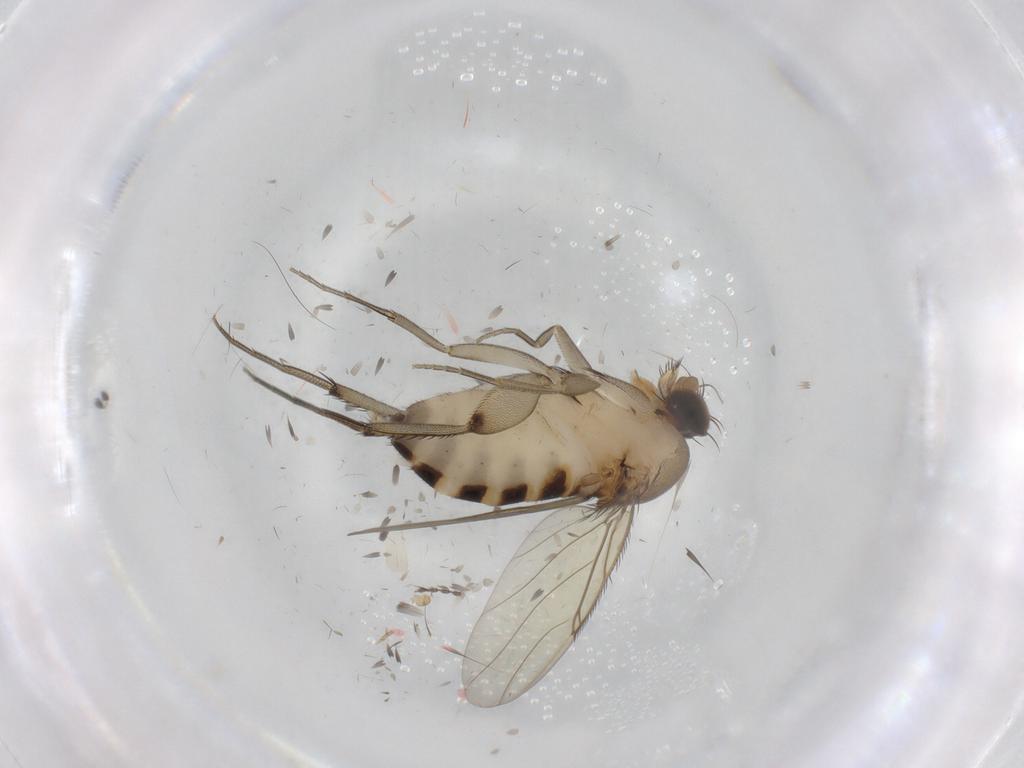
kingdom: Animalia
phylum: Arthropoda
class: Insecta
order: Diptera
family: Phoridae
